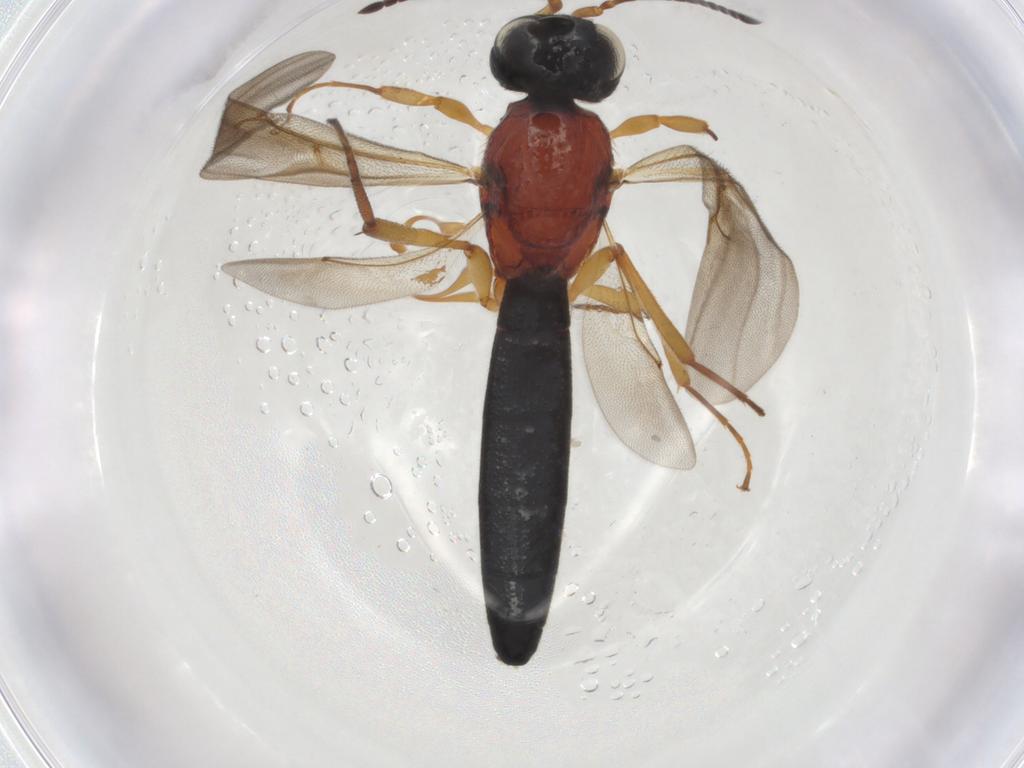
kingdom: Animalia
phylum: Arthropoda
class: Insecta
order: Hymenoptera
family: Scelionidae
